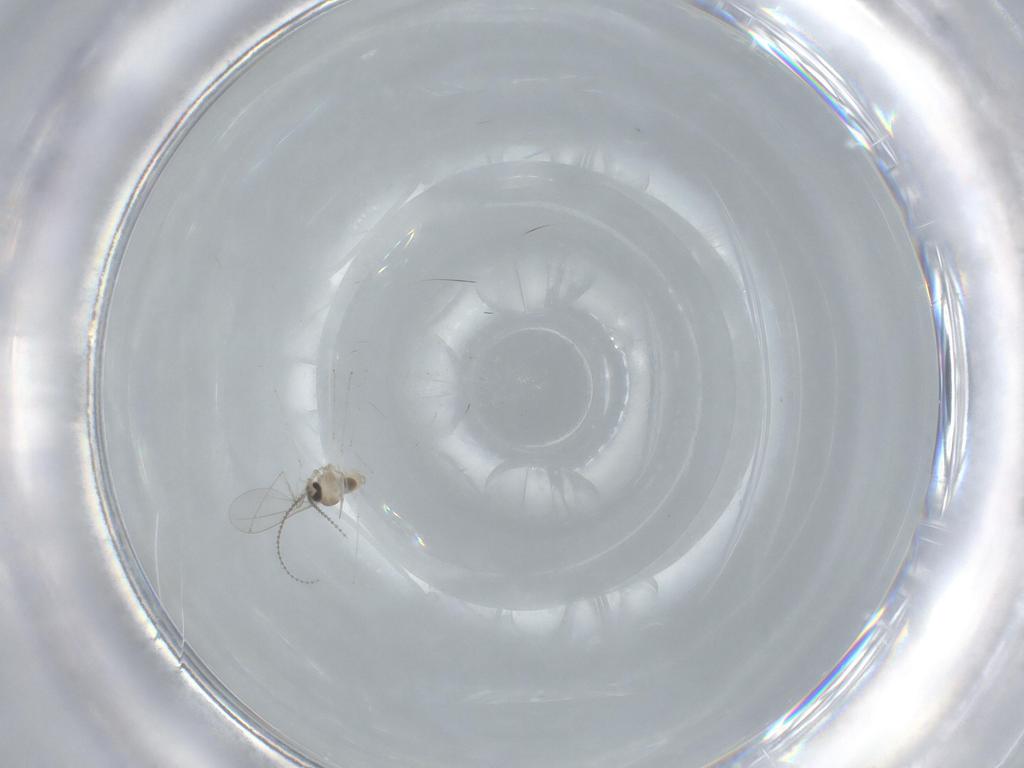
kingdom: Animalia
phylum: Arthropoda
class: Insecta
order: Diptera
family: Cecidomyiidae
